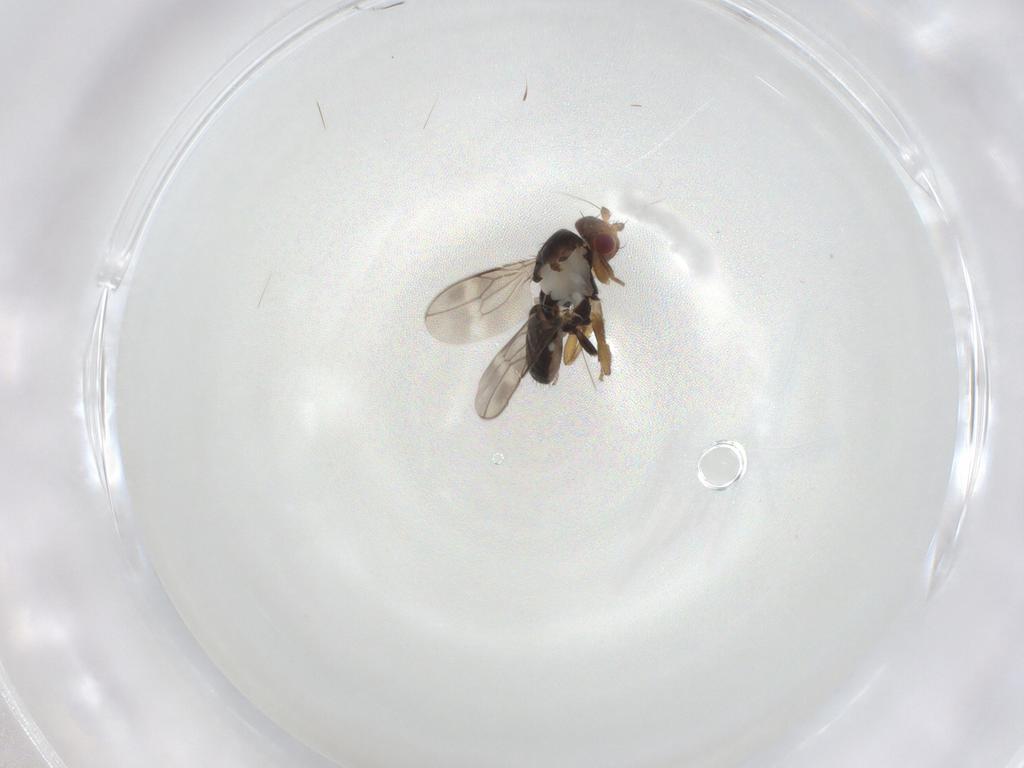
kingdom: Animalia
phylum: Arthropoda
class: Insecta
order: Diptera
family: Sphaeroceridae
